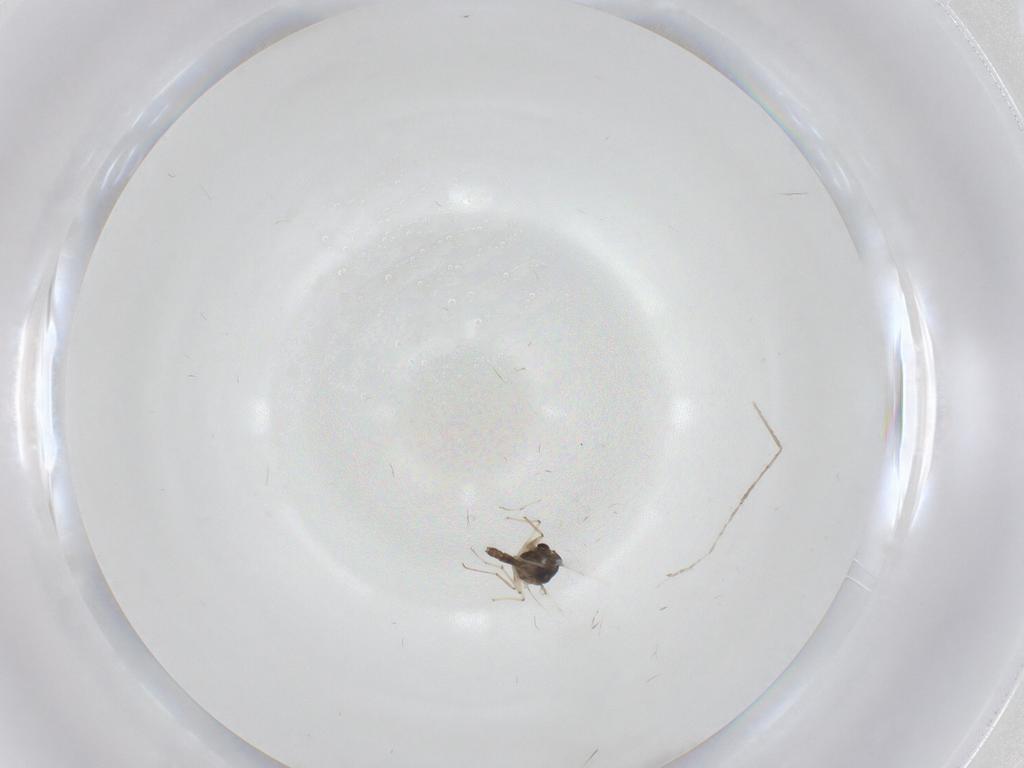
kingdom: Animalia
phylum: Arthropoda
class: Insecta
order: Diptera
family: Chironomidae
